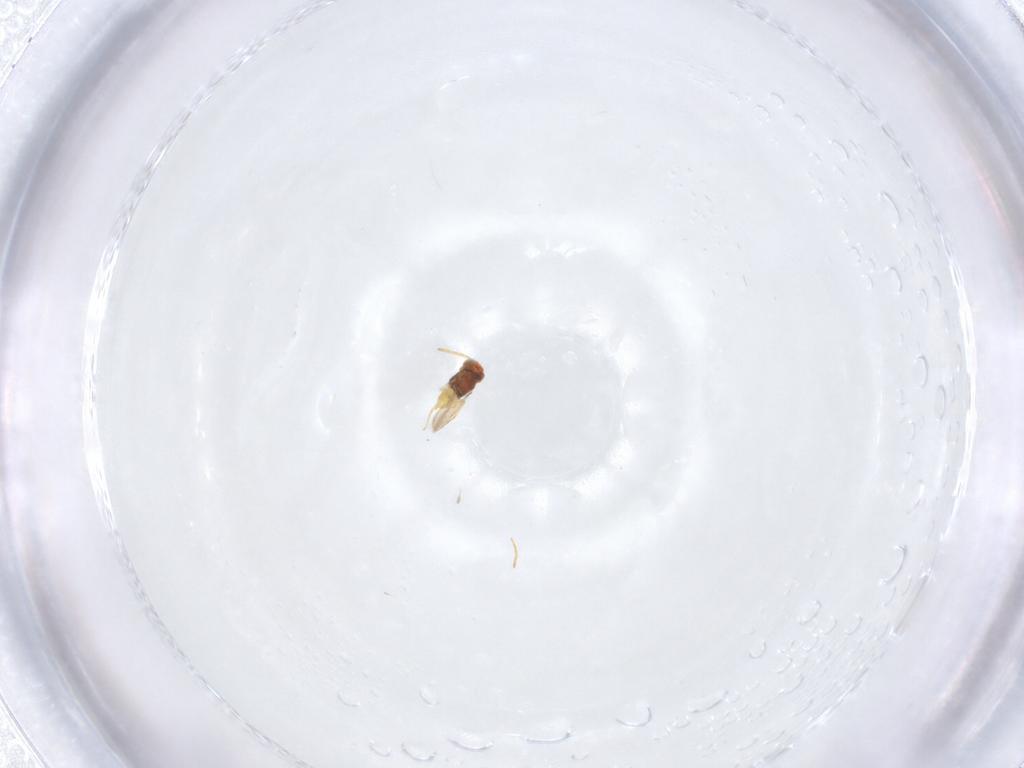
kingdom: Animalia
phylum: Arthropoda
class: Insecta
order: Hymenoptera
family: Aphelinidae
